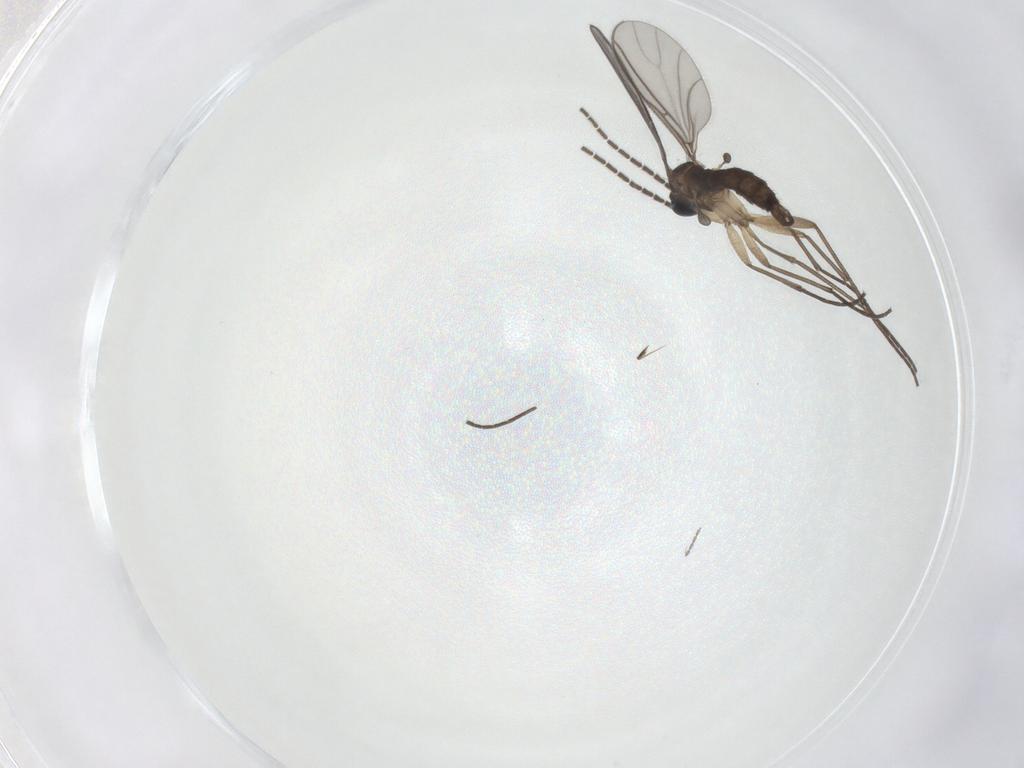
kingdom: Animalia
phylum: Arthropoda
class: Insecta
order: Diptera
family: Sciaridae
